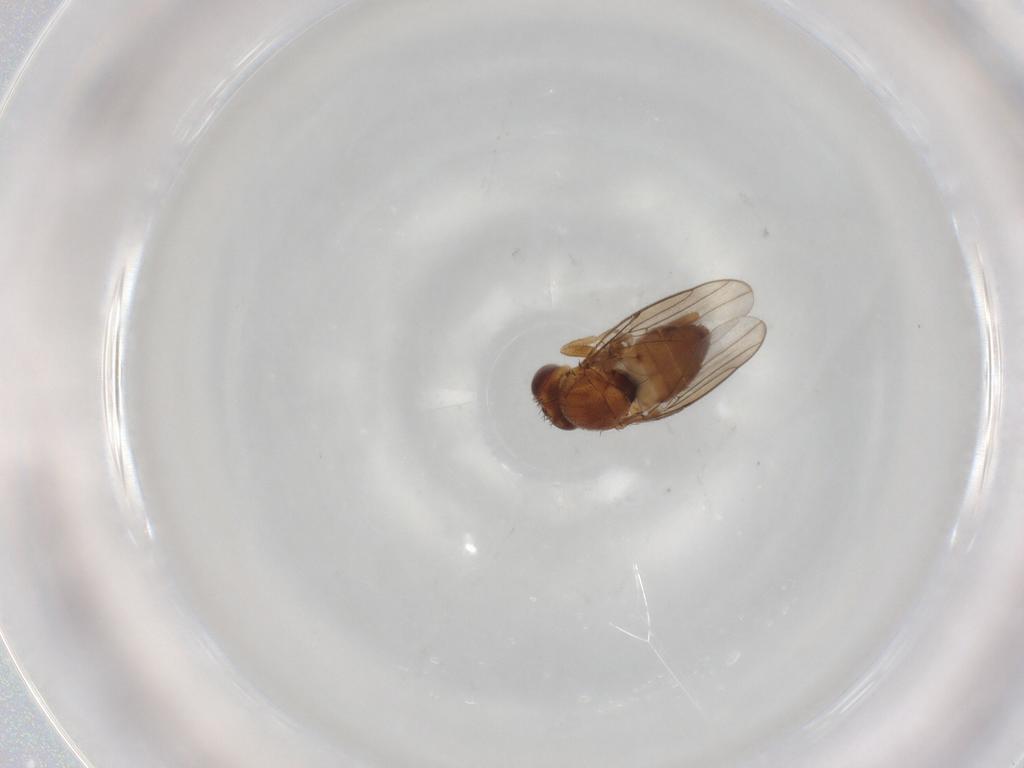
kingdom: Animalia
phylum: Arthropoda
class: Insecta
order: Diptera
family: Chloropidae
